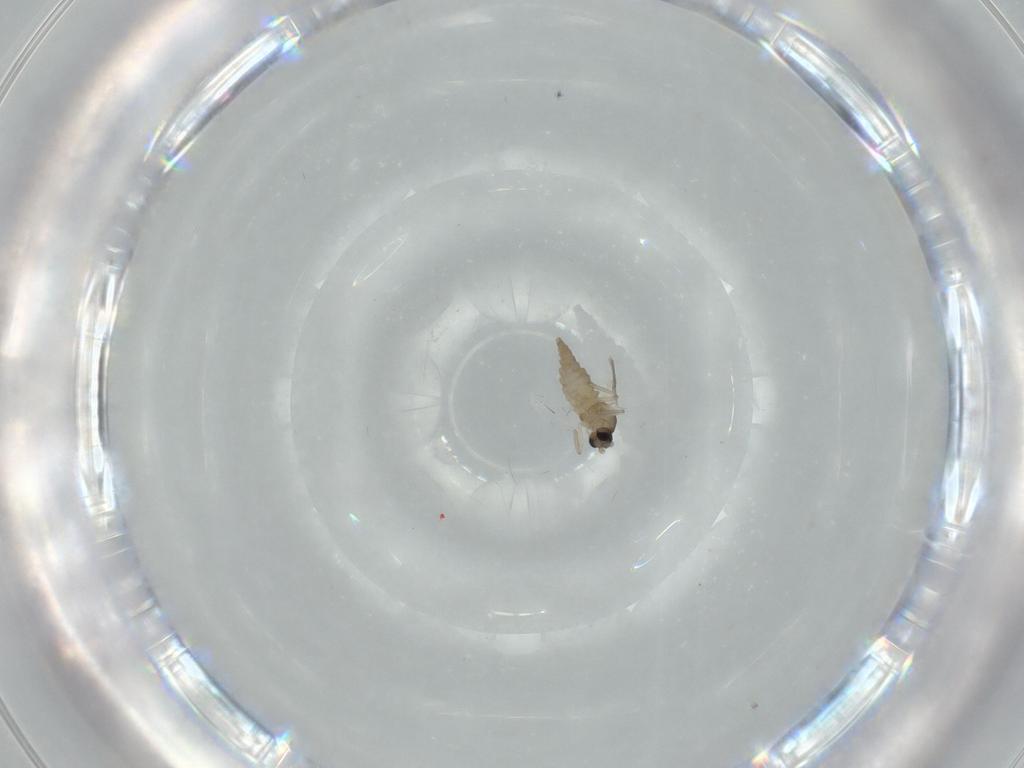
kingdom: Animalia
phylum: Arthropoda
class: Insecta
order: Diptera
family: Cecidomyiidae
